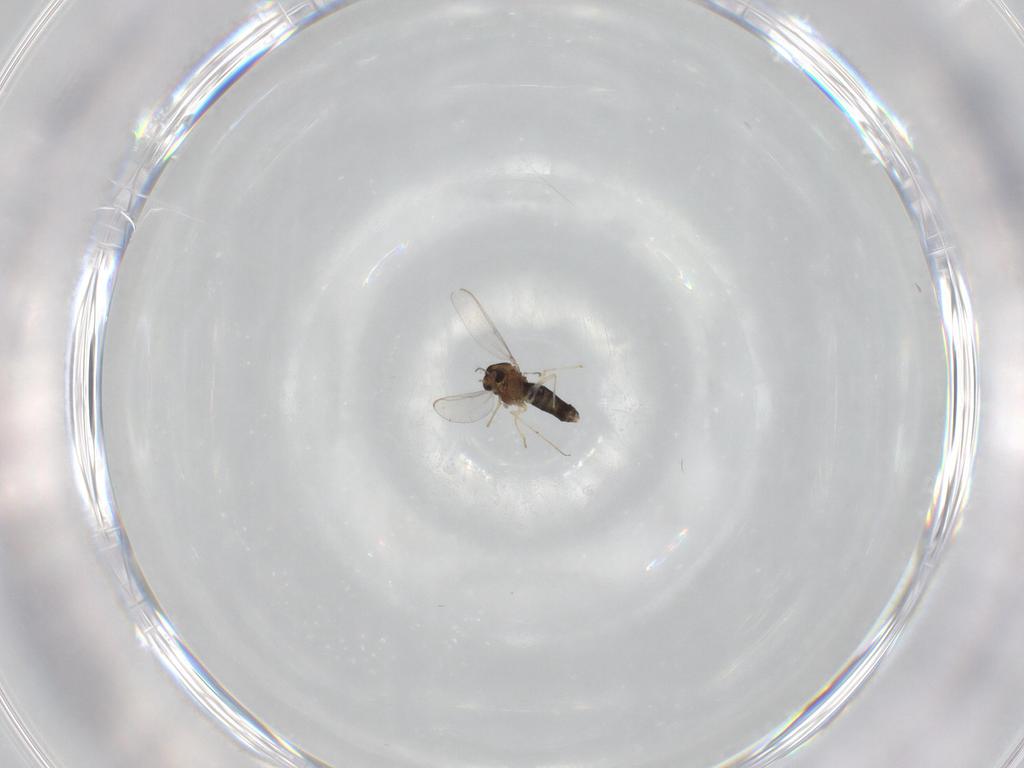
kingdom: Animalia
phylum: Arthropoda
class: Insecta
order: Diptera
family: Chironomidae
